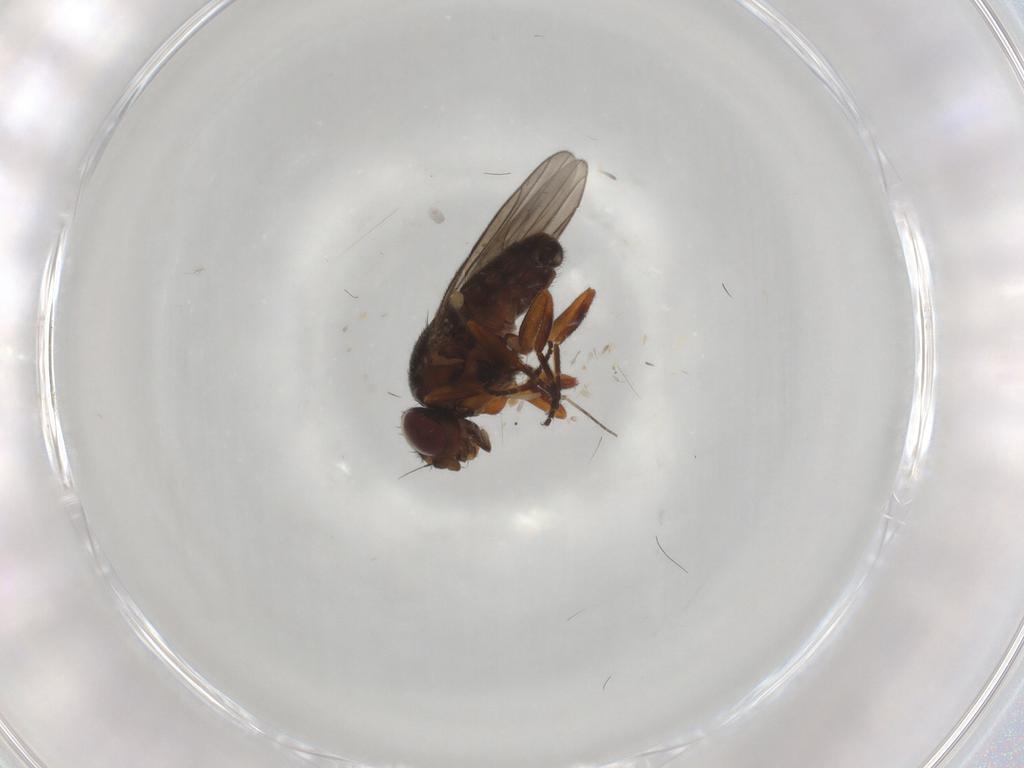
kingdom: Animalia
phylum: Arthropoda
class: Insecta
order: Diptera
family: Chloropidae
